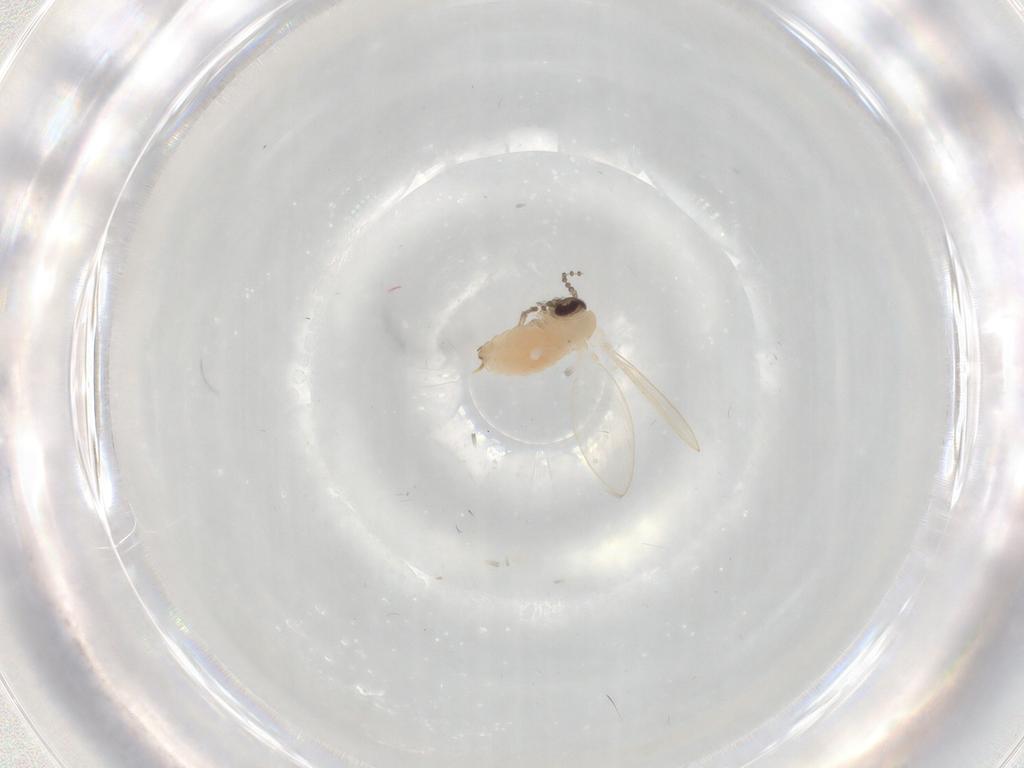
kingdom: Animalia
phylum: Arthropoda
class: Insecta
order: Diptera
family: Psychodidae
